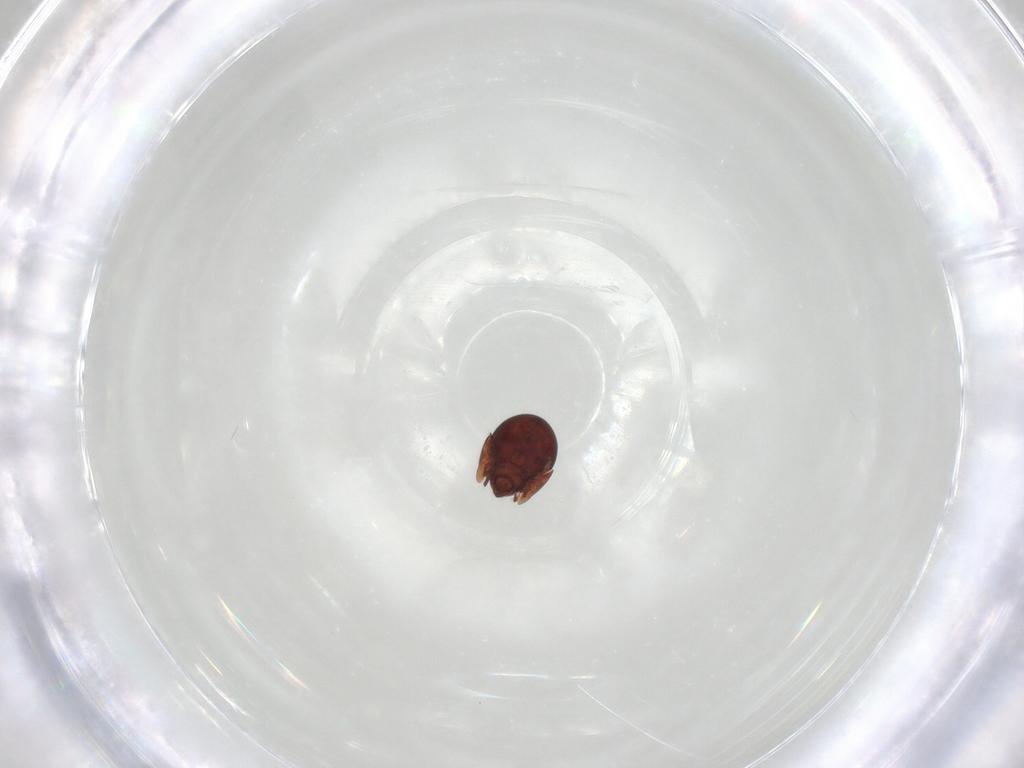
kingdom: Animalia
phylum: Arthropoda
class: Arachnida
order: Sarcoptiformes
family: Galumnidae
